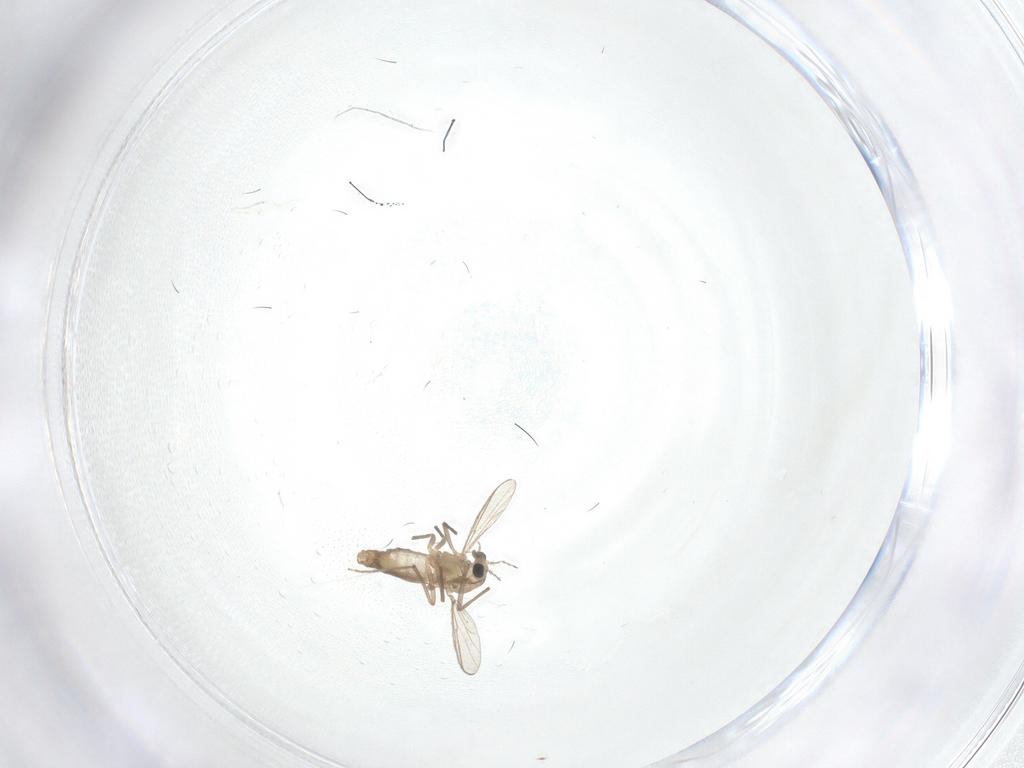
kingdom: Animalia
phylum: Arthropoda
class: Insecta
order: Diptera
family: Chironomidae
